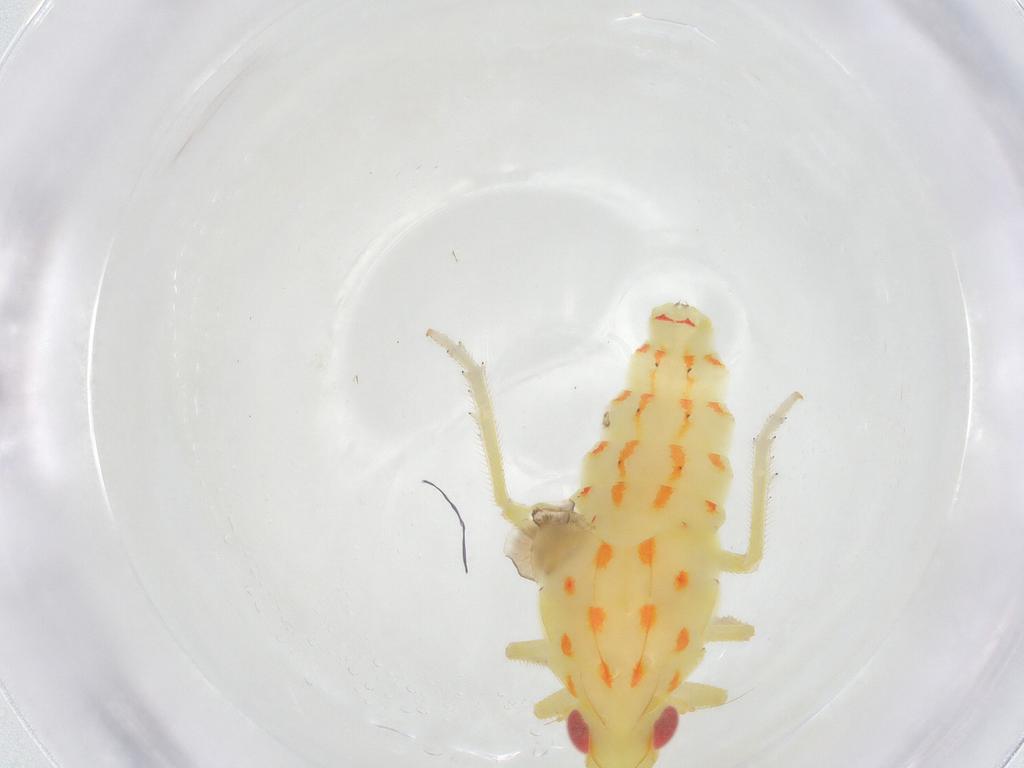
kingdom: Animalia
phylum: Arthropoda
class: Insecta
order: Hemiptera
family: Tropiduchidae
